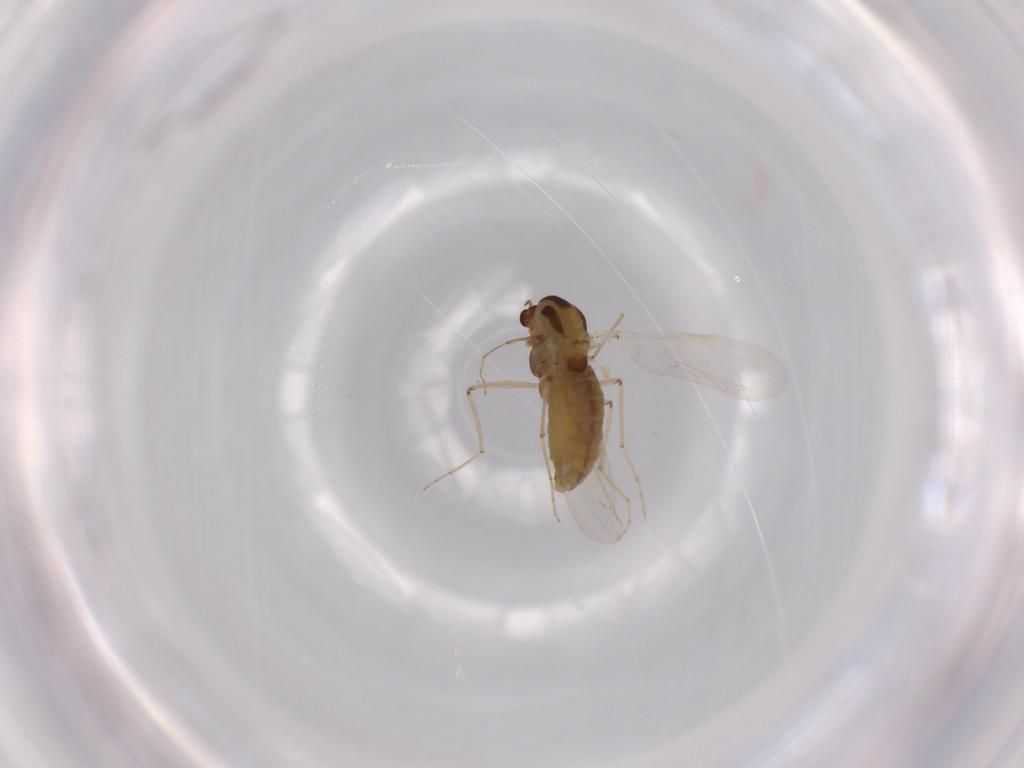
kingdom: Animalia
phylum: Arthropoda
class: Insecta
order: Diptera
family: Chironomidae
